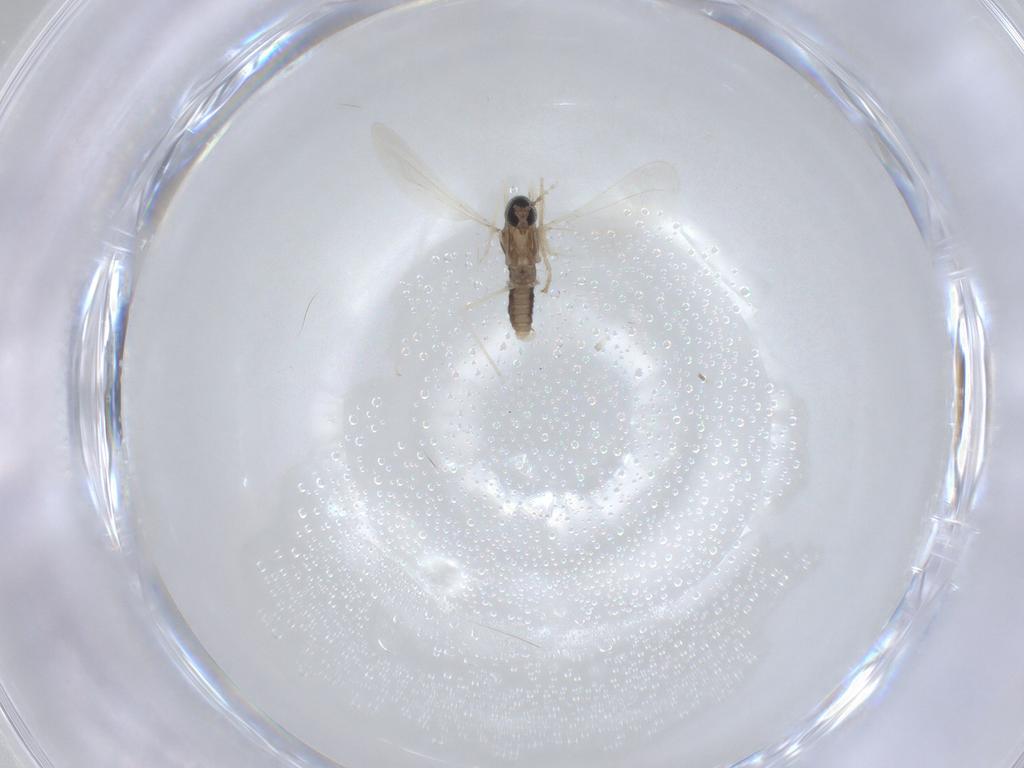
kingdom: Animalia
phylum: Arthropoda
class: Insecta
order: Diptera
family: Cecidomyiidae
